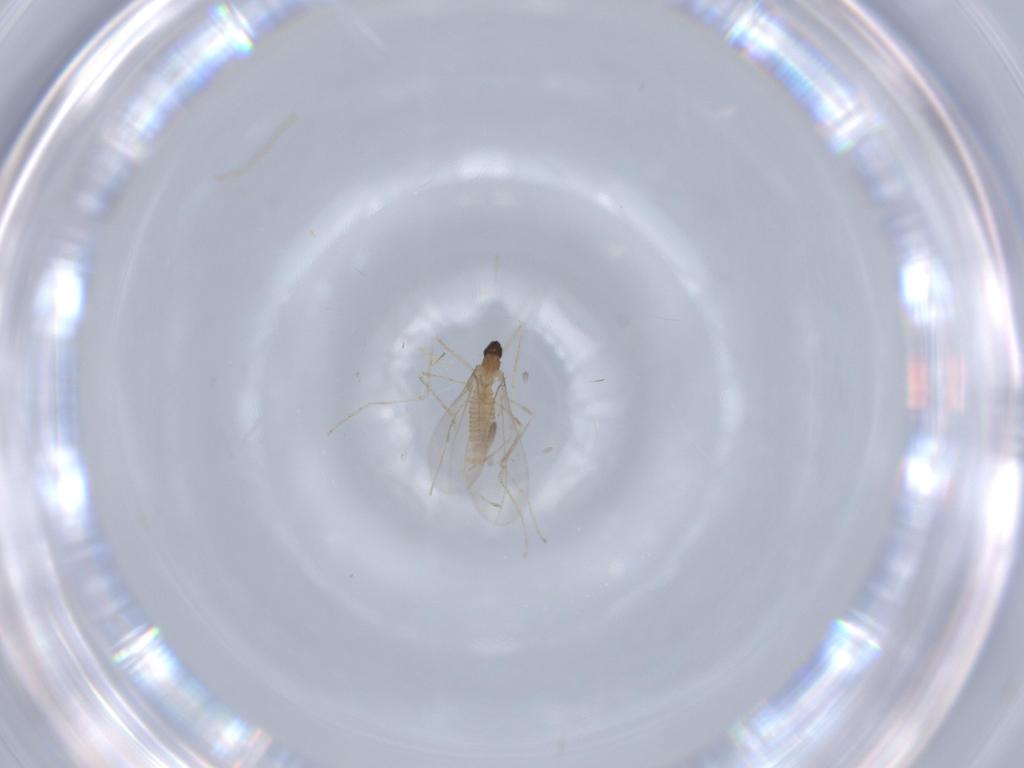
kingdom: Animalia
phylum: Arthropoda
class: Insecta
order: Diptera
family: Cecidomyiidae
